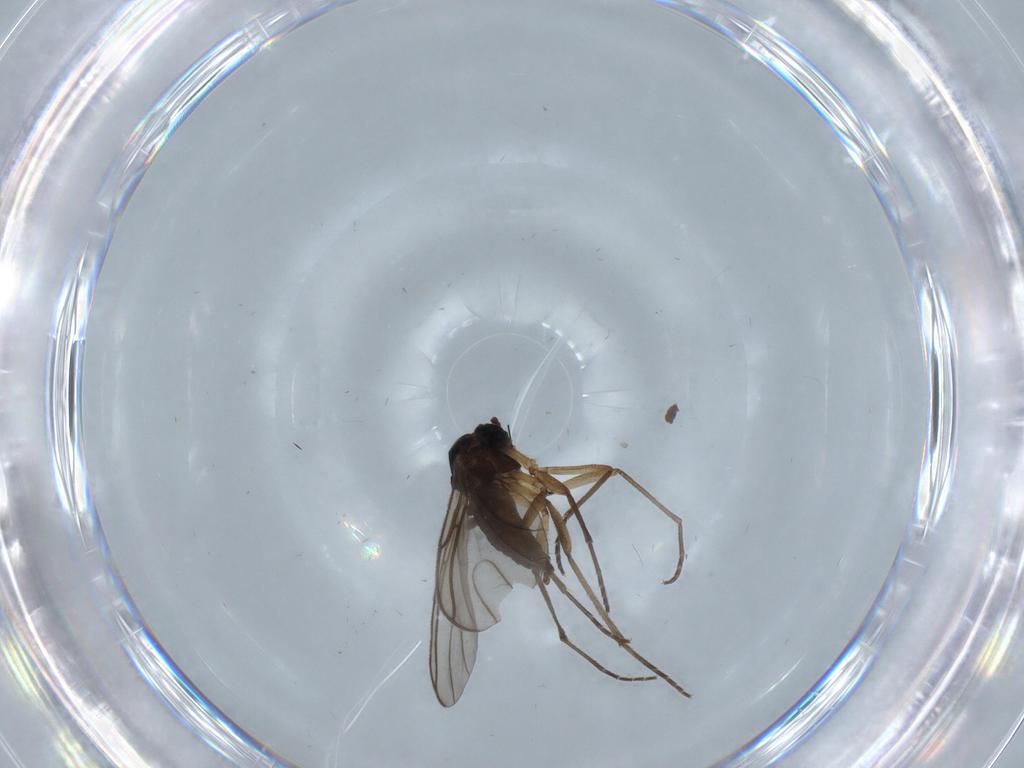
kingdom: Animalia
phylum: Arthropoda
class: Insecta
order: Diptera
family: Psychodidae
